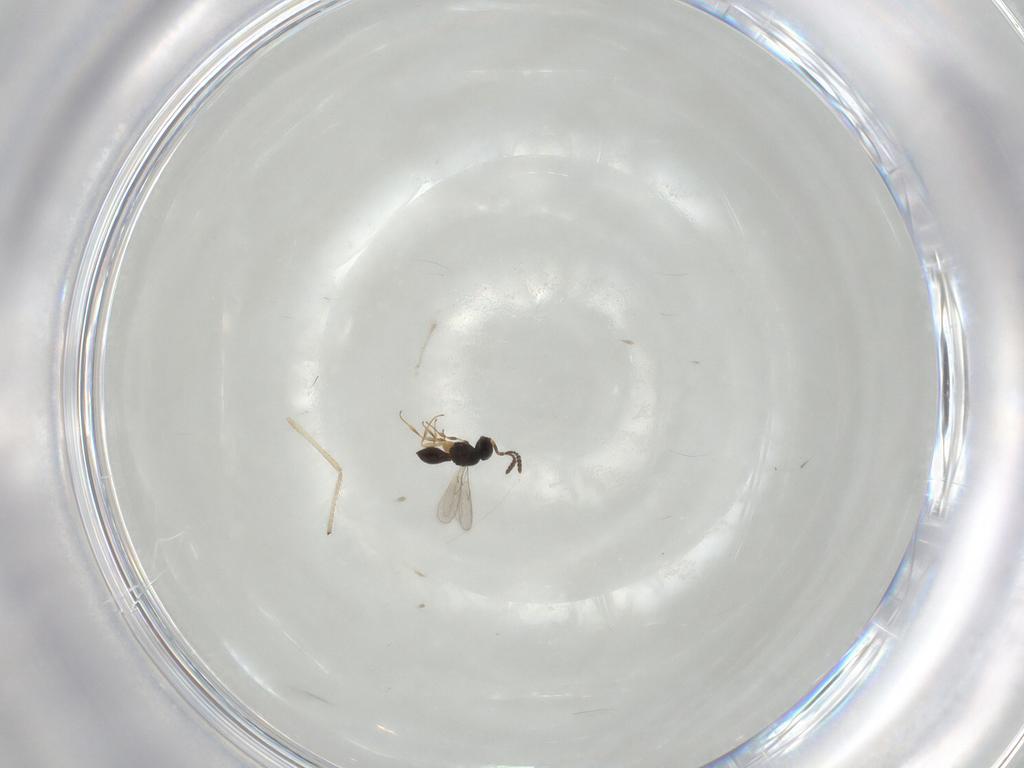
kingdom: Animalia
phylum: Arthropoda
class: Insecta
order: Hymenoptera
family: Scelionidae
